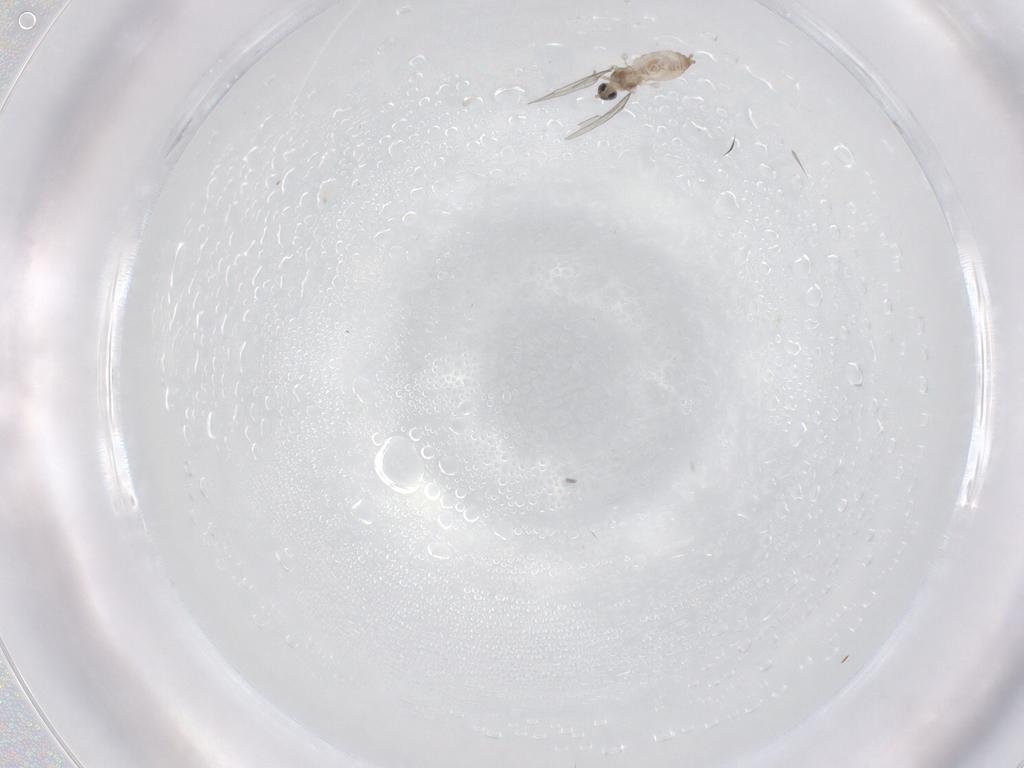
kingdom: Animalia
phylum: Arthropoda
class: Insecta
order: Diptera
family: Cecidomyiidae
